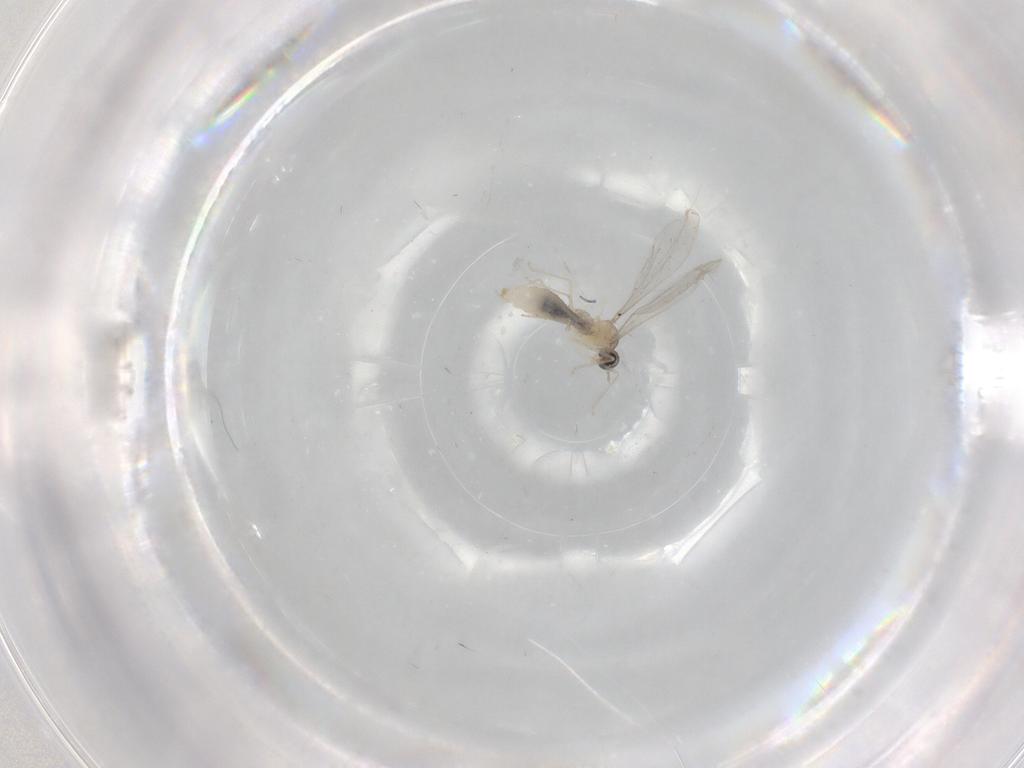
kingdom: Animalia
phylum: Arthropoda
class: Insecta
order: Diptera
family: Cecidomyiidae
